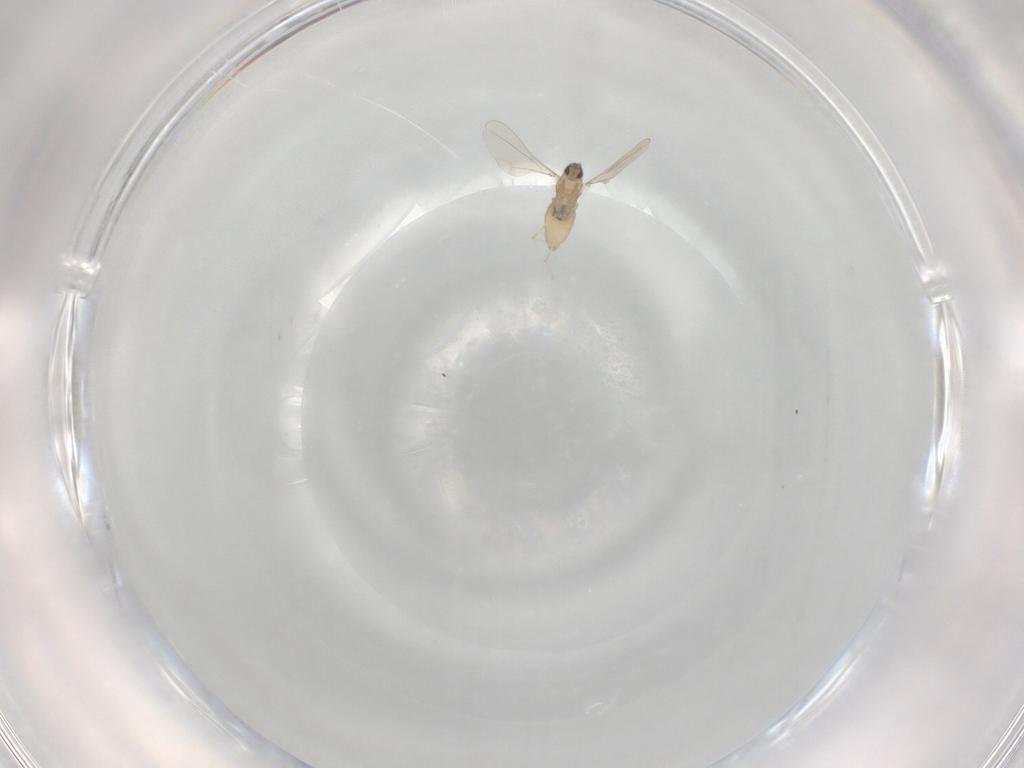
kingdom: Animalia
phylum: Arthropoda
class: Insecta
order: Diptera
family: Cecidomyiidae
